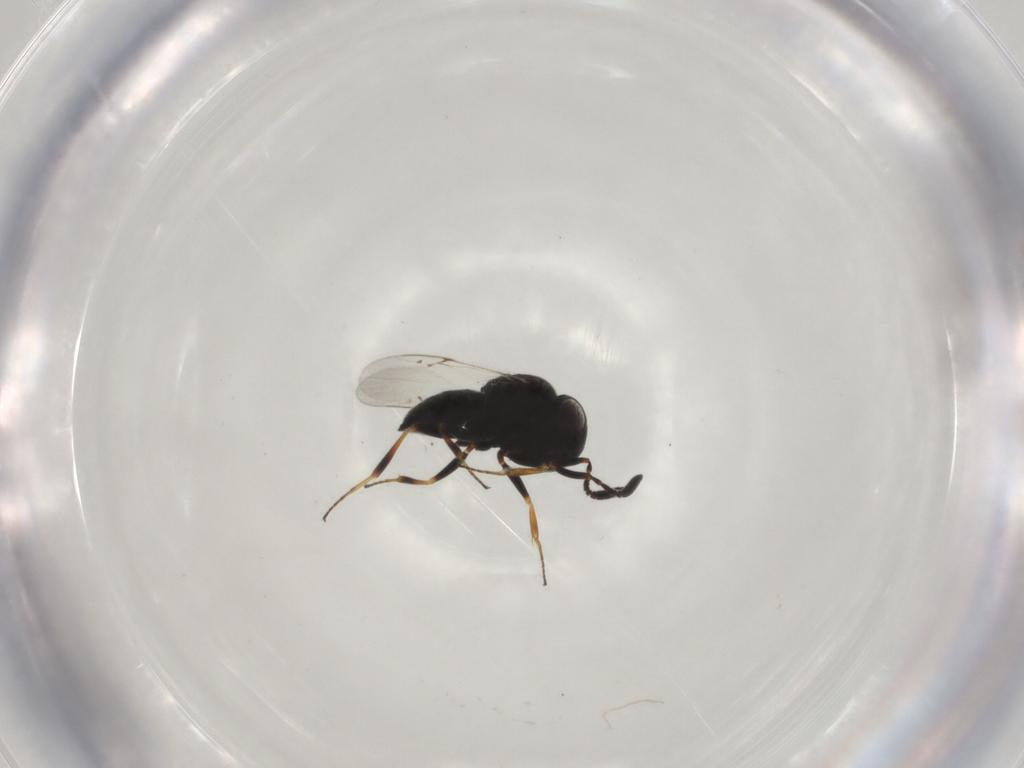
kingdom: Animalia
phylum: Arthropoda
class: Insecta
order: Hymenoptera
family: Scelionidae
